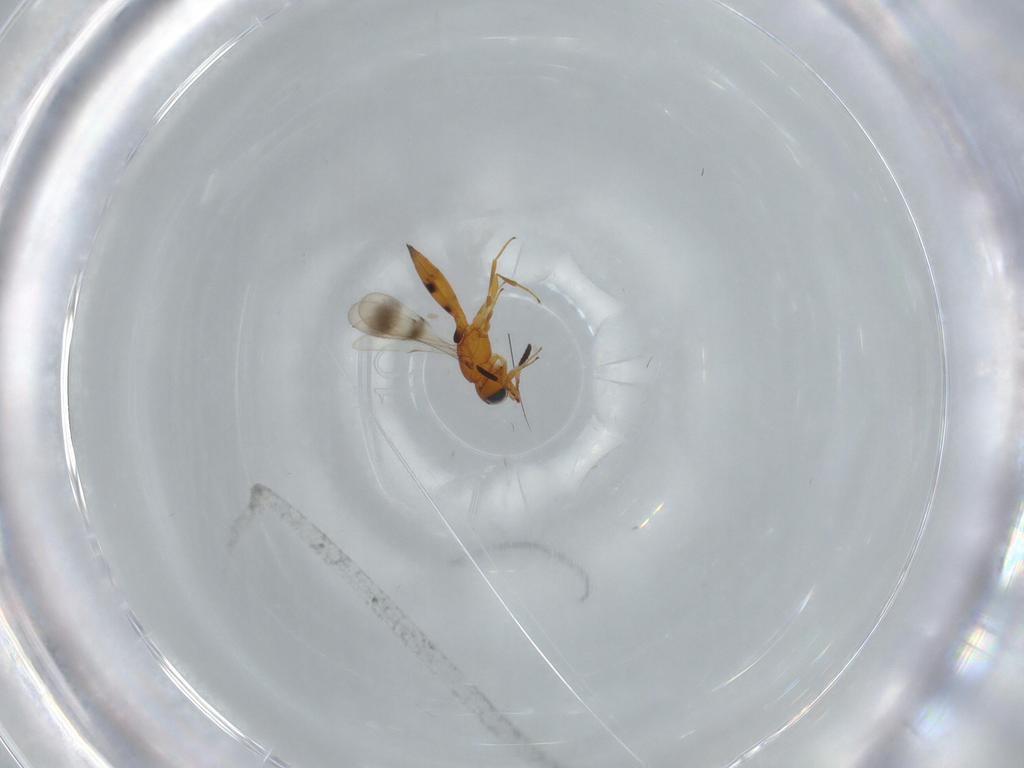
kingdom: Animalia
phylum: Arthropoda
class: Insecta
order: Hymenoptera
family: Scelionidae
